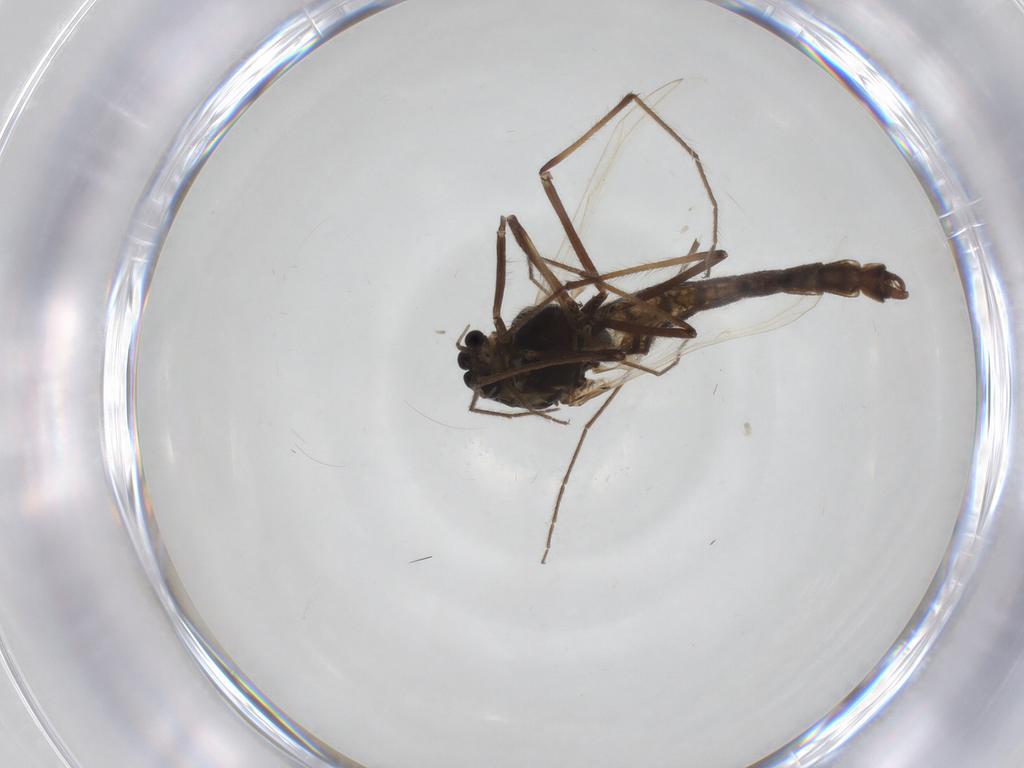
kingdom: Animalia
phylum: Arthropoda
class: Insecta
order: Diptera
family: Chironomidae
